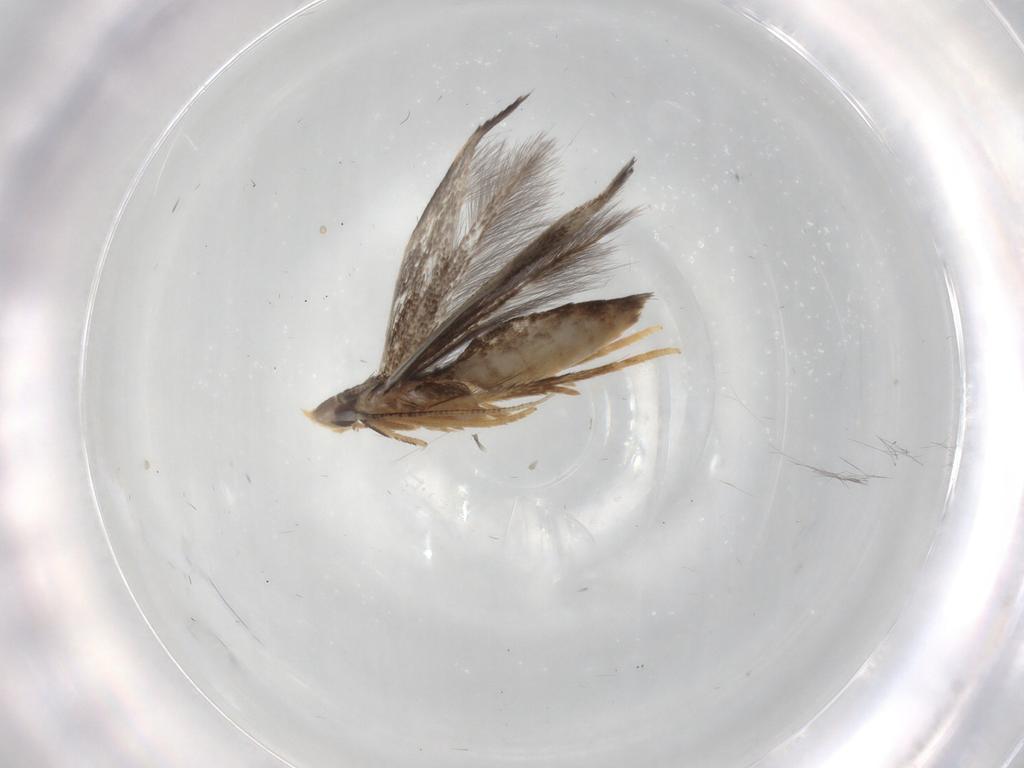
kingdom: Animalia
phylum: Arthropoda
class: Insecta
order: Lepidoptera
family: Gelechiidae
